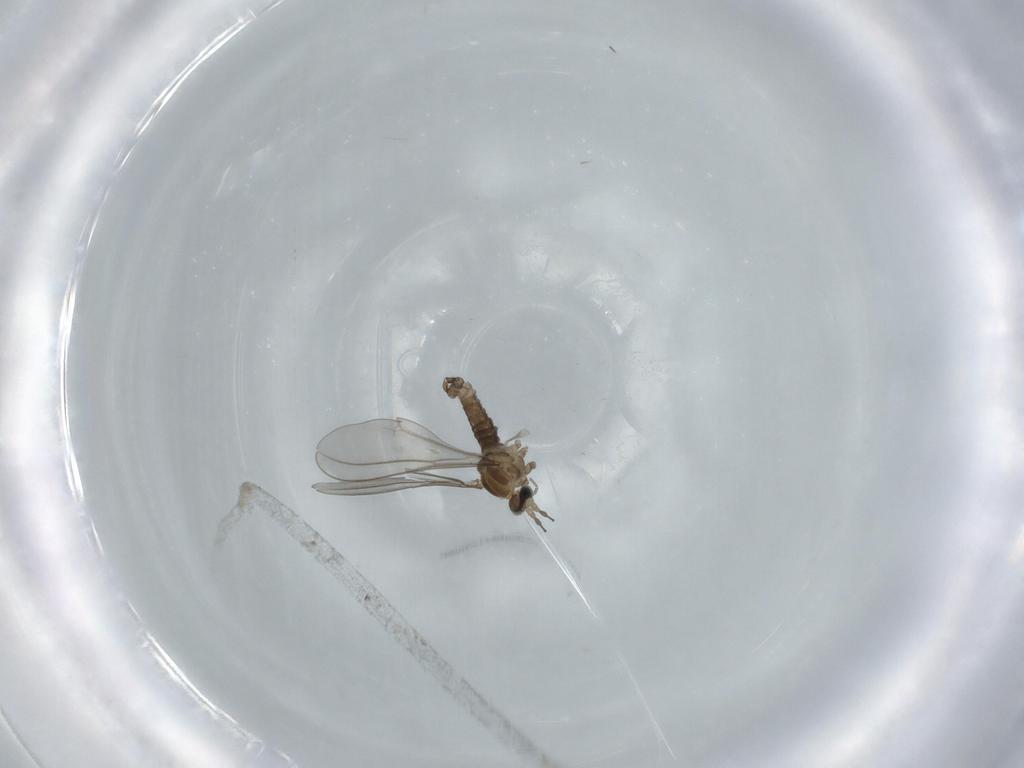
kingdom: Animalia
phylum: Arthropoda
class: Insecta
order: Diptera
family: Cecidomyiidae
